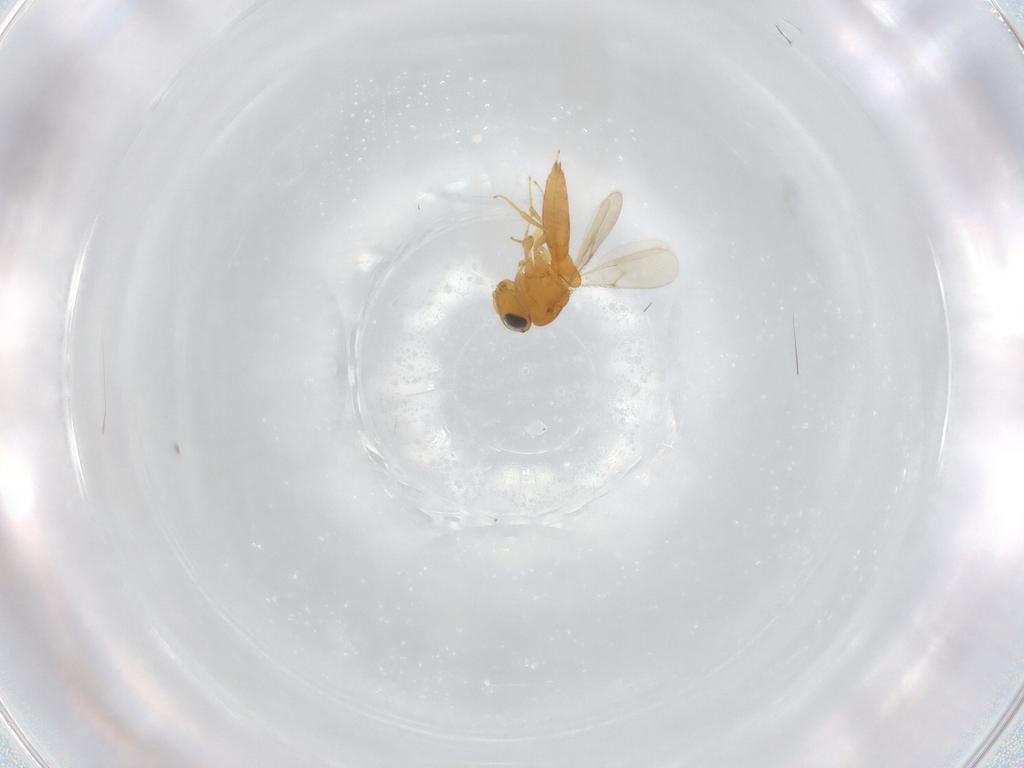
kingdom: Animalia
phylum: Arthropoda
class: Insecta
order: Hymenoptera
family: Scelionidae
